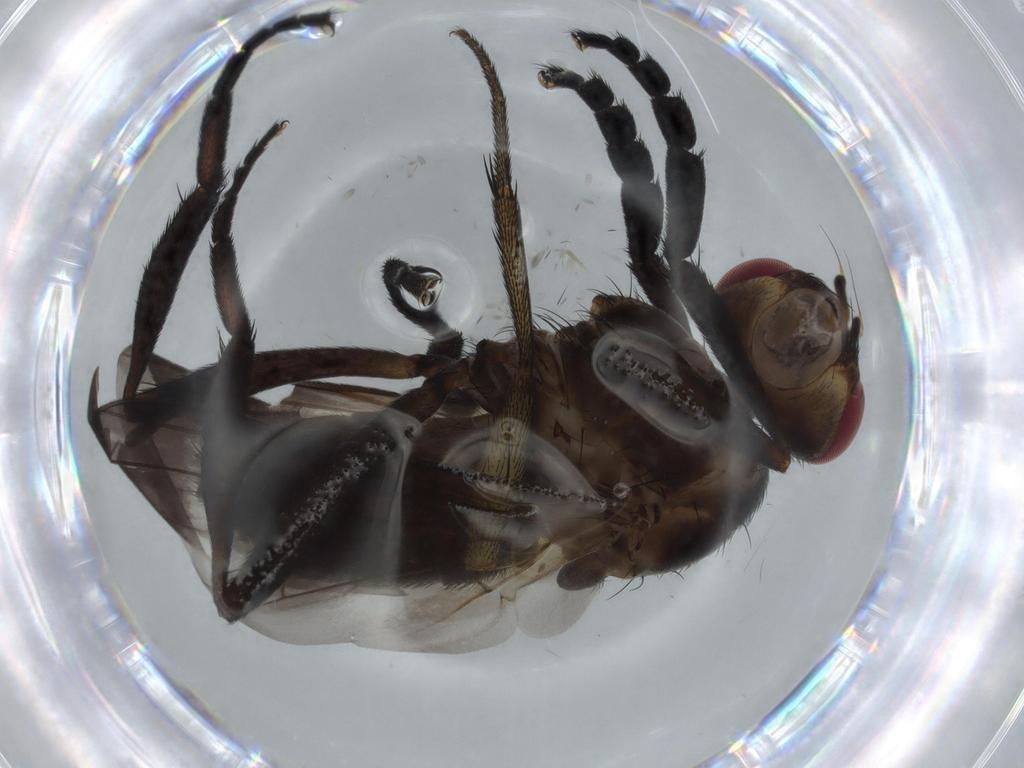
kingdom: Animalia
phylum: Arthropoda
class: Insecta
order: Diptera
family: Calliphoridae
